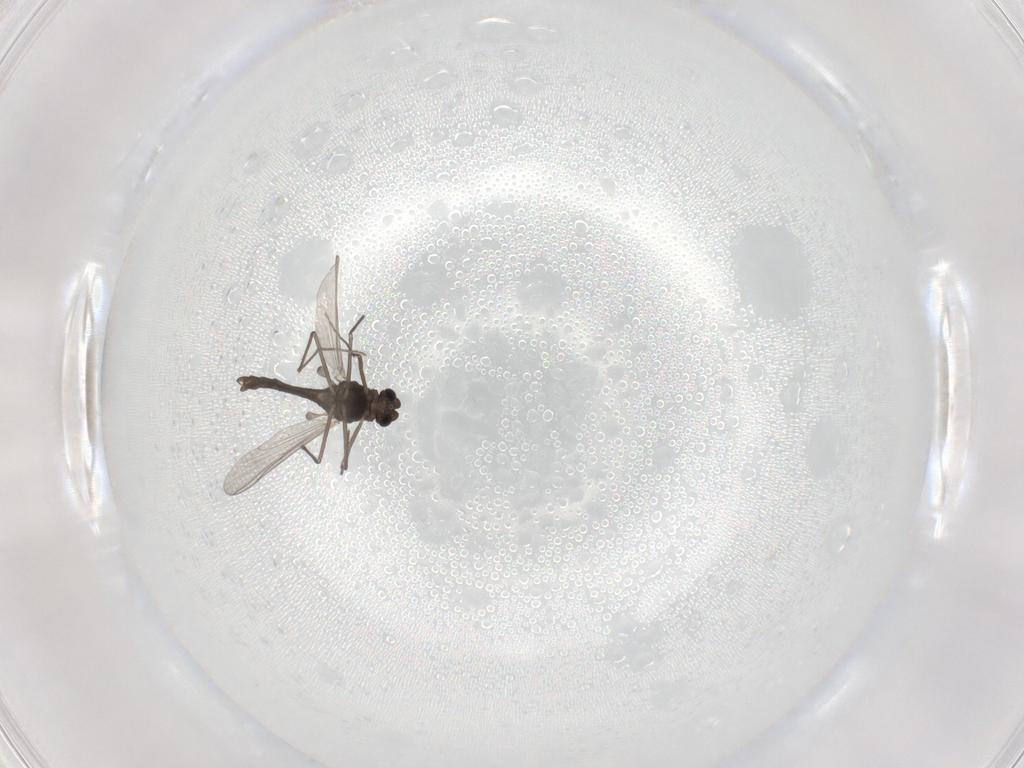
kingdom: Animalia
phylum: Arthropoda
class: Insecta
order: Diptera
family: Chironomidae
